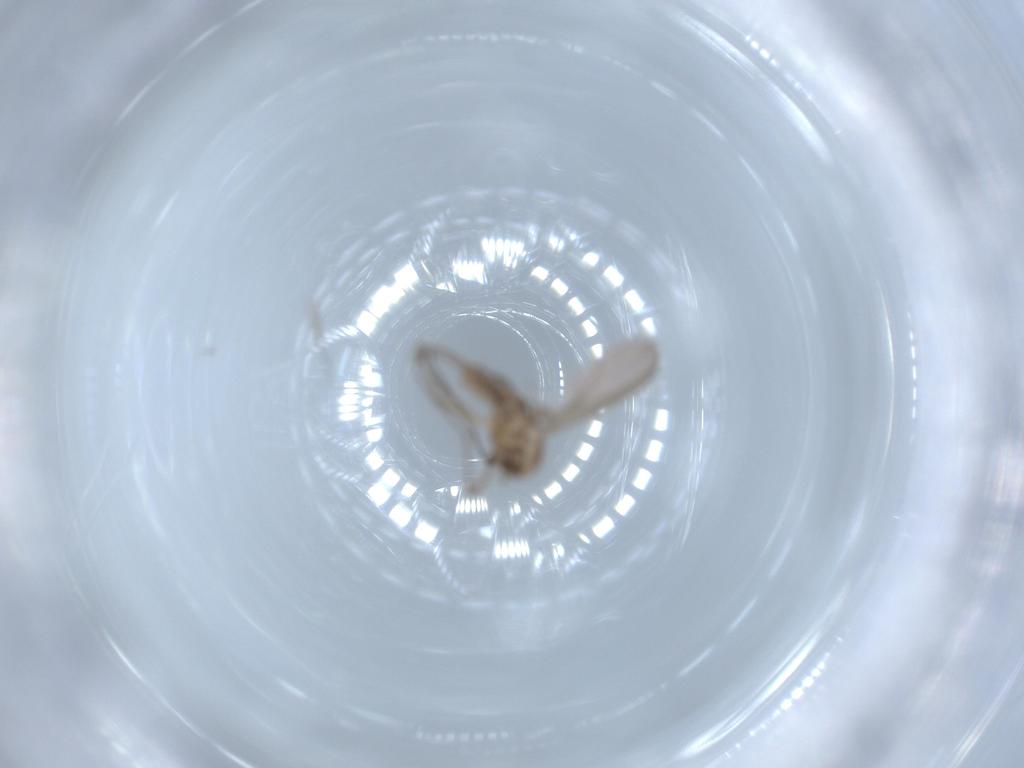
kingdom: Animalia
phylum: Arthropoda
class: Insecta
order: Diptera
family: Chironomidae
